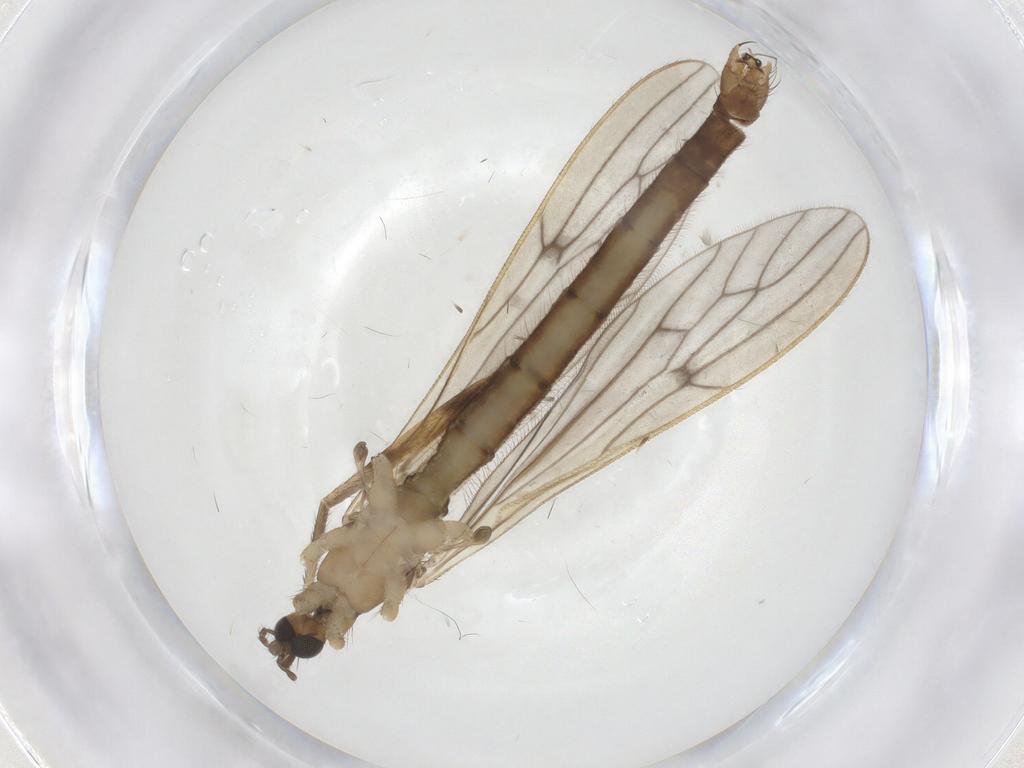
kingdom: Animalia
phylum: Arthropoda
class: Insecta
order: Diptera
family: Limoniidae
